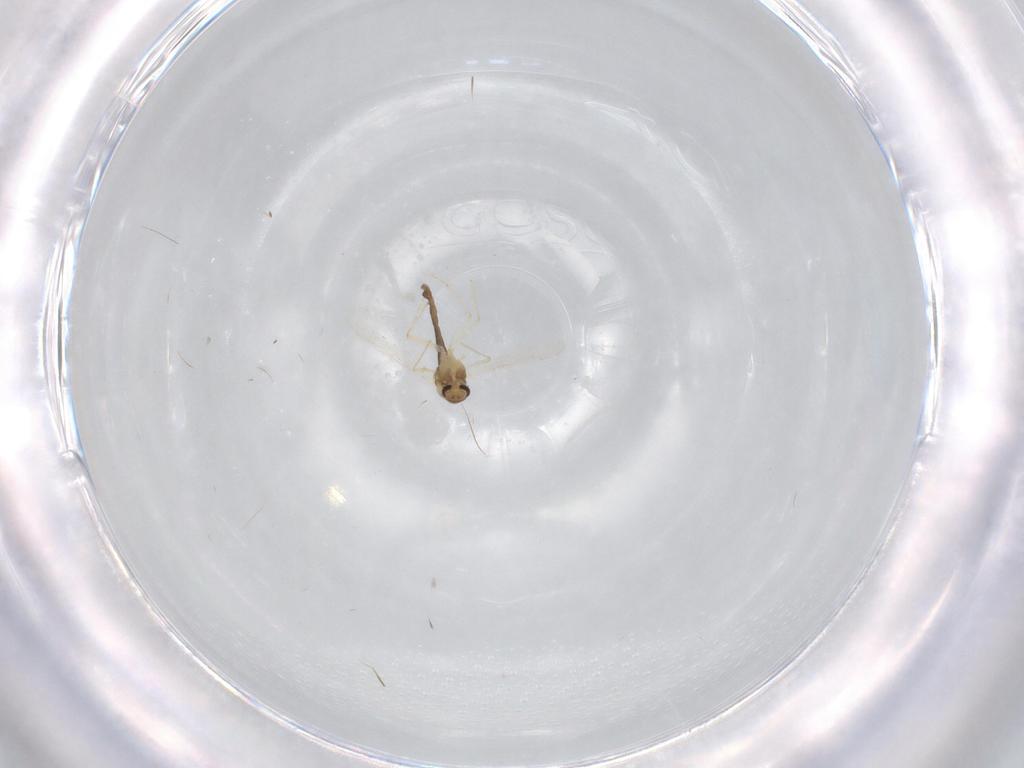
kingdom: Animalia
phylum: Arthropoda
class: Insecta
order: Diptera
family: Chironomidae
